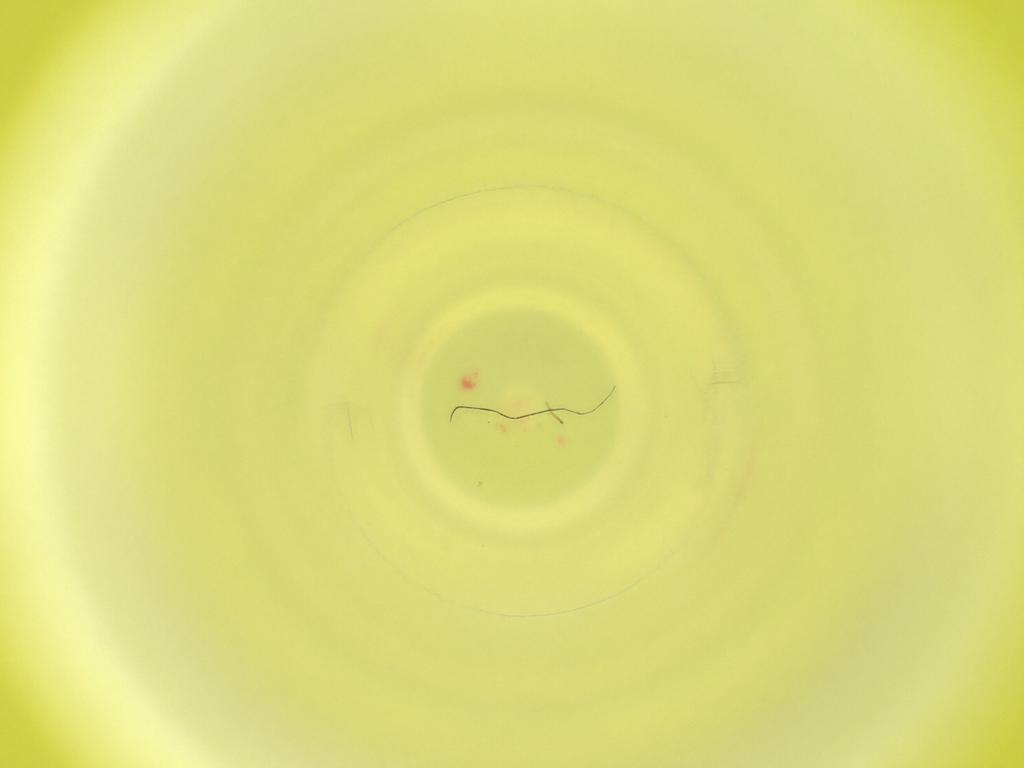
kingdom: Animalia
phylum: Arthropoda
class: Insecta
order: Diptera
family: Cecidomyiidae
